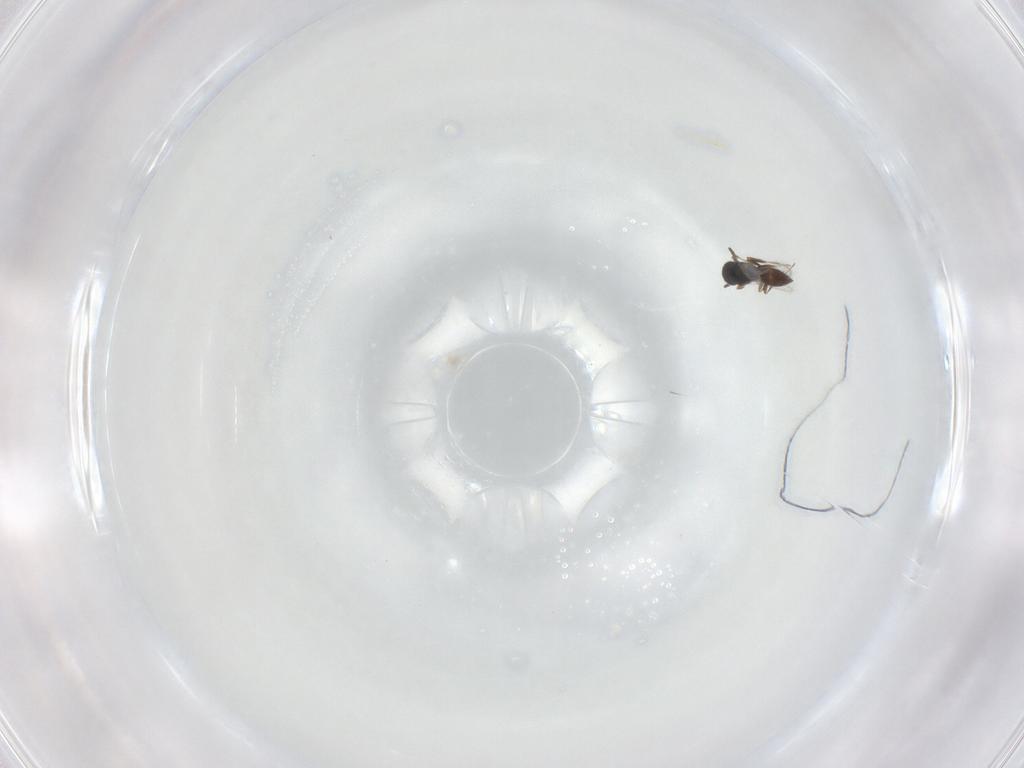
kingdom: Animalia
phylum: Arthropoda
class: Insecta
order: Hymenoptera
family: Scelionidae
